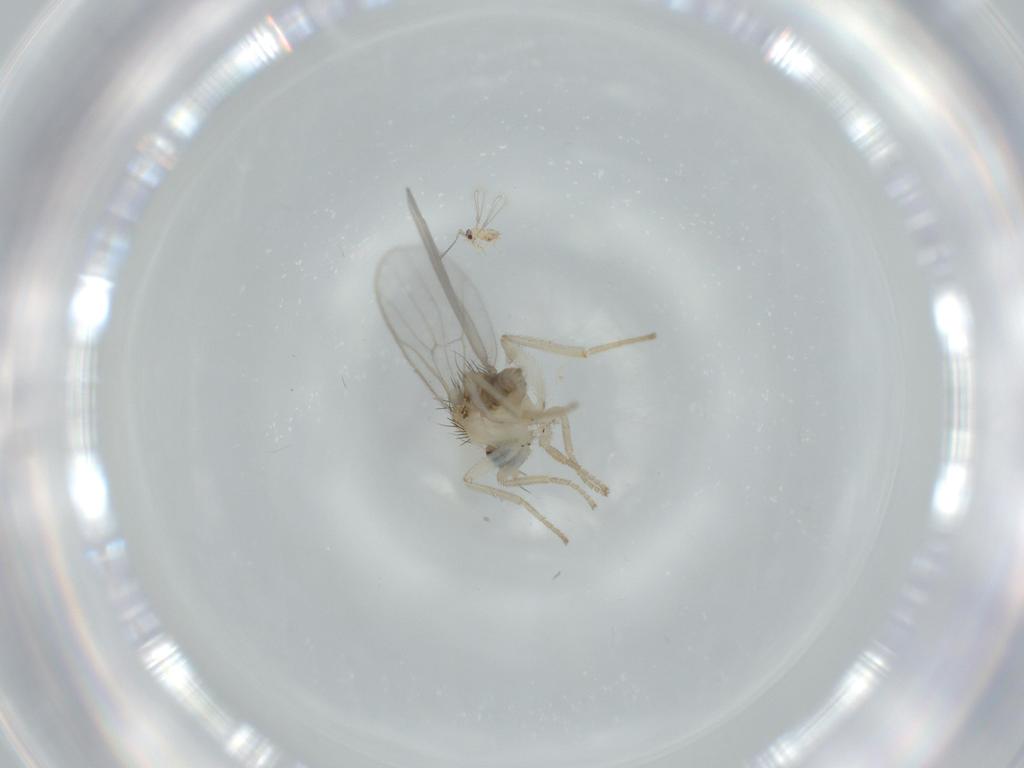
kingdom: Animalia
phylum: Arthropoda
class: Insecta
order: Diptera
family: Hybotidae
